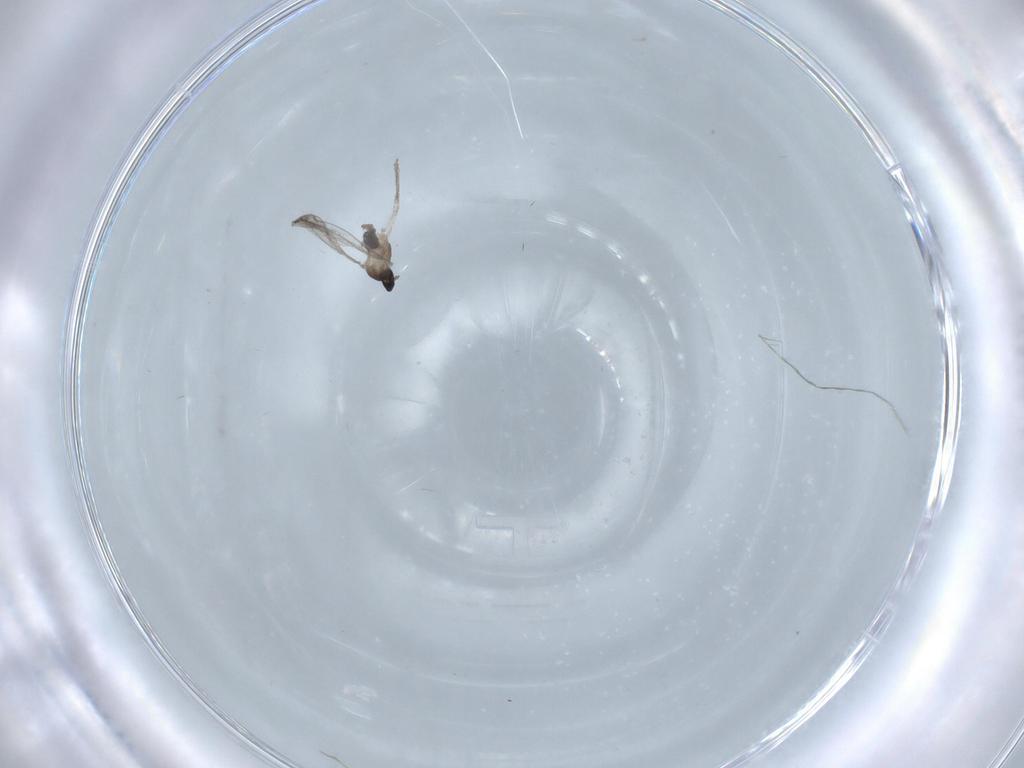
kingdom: Animalia
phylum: Arthropoda
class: Insecta
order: Diptera
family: Cecidomyiidae
